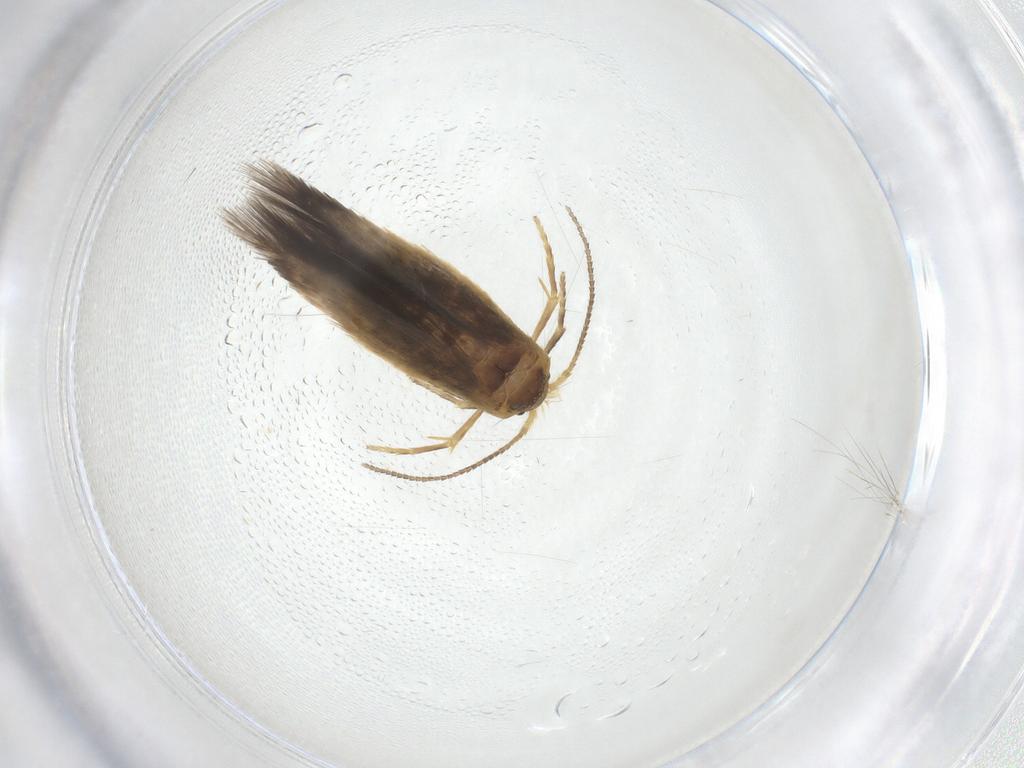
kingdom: Animalia
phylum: Arthropoda
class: Insecta
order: Lepidoptera
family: Nepticulidae
